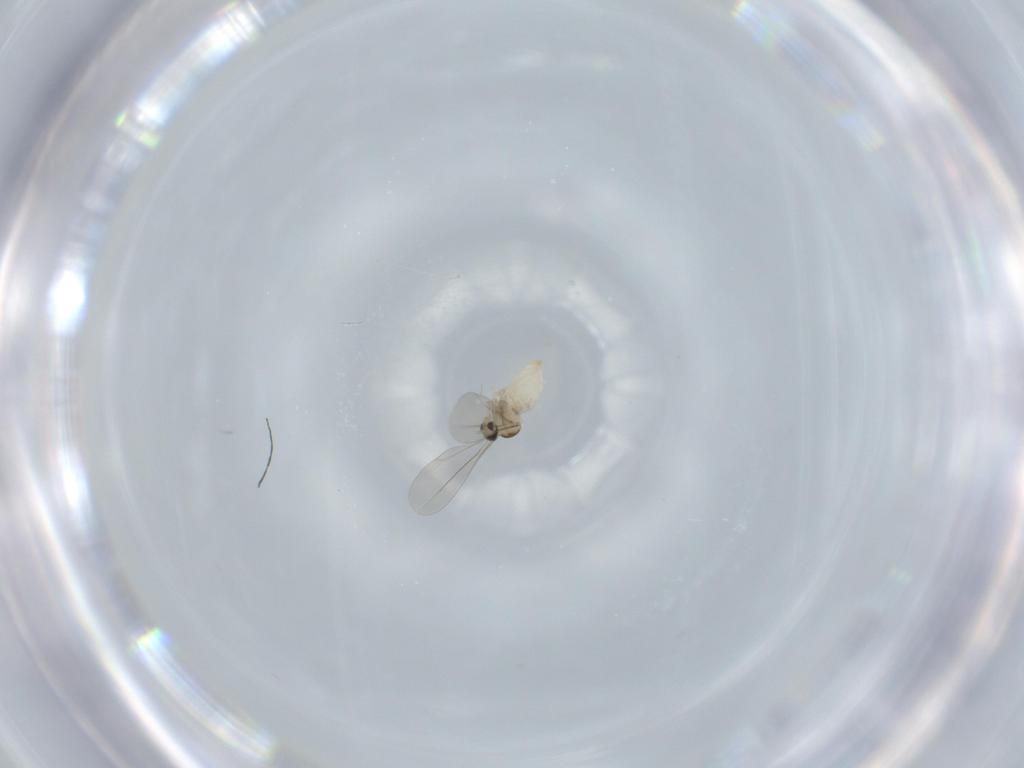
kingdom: Animalia
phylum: Arthropoda
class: Insecta
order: Diptera
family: Cecidomyiidae
